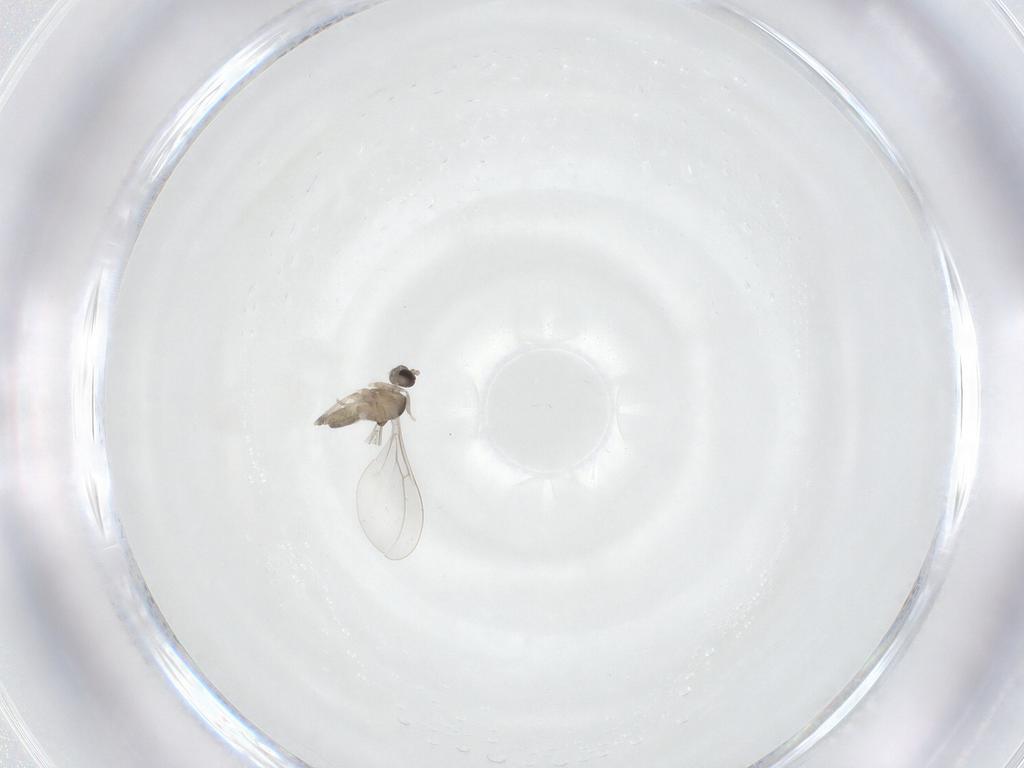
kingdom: Animalia
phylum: Arthropoda
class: Insecta
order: Diptera
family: Cecidomyiidae
